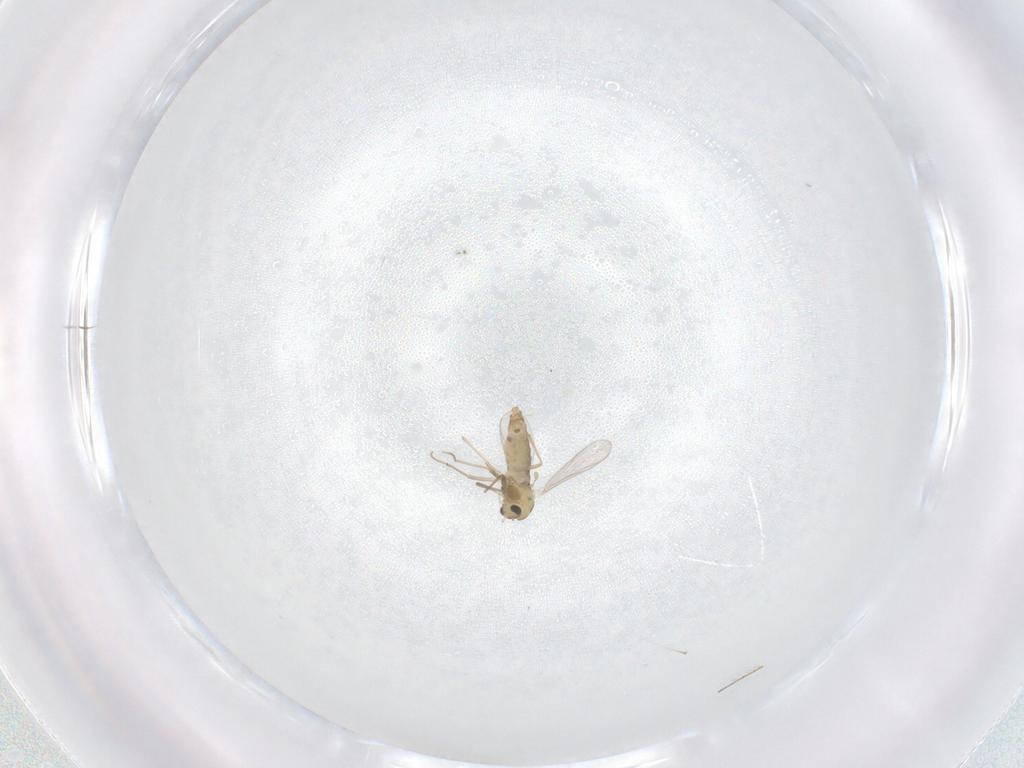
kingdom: Animalia
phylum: Arthropoda
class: Insecta
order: Diptera
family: Chironomidae
